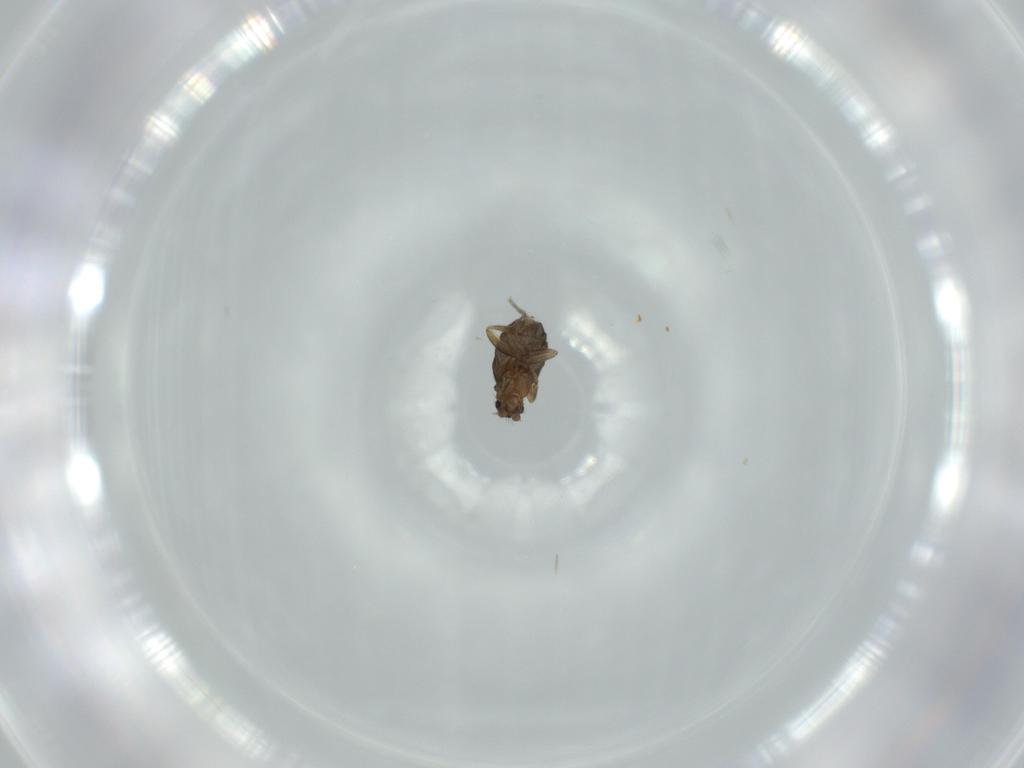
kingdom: Animalia
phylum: Arthropoda
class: Insecta
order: Diptera
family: Phoridae
